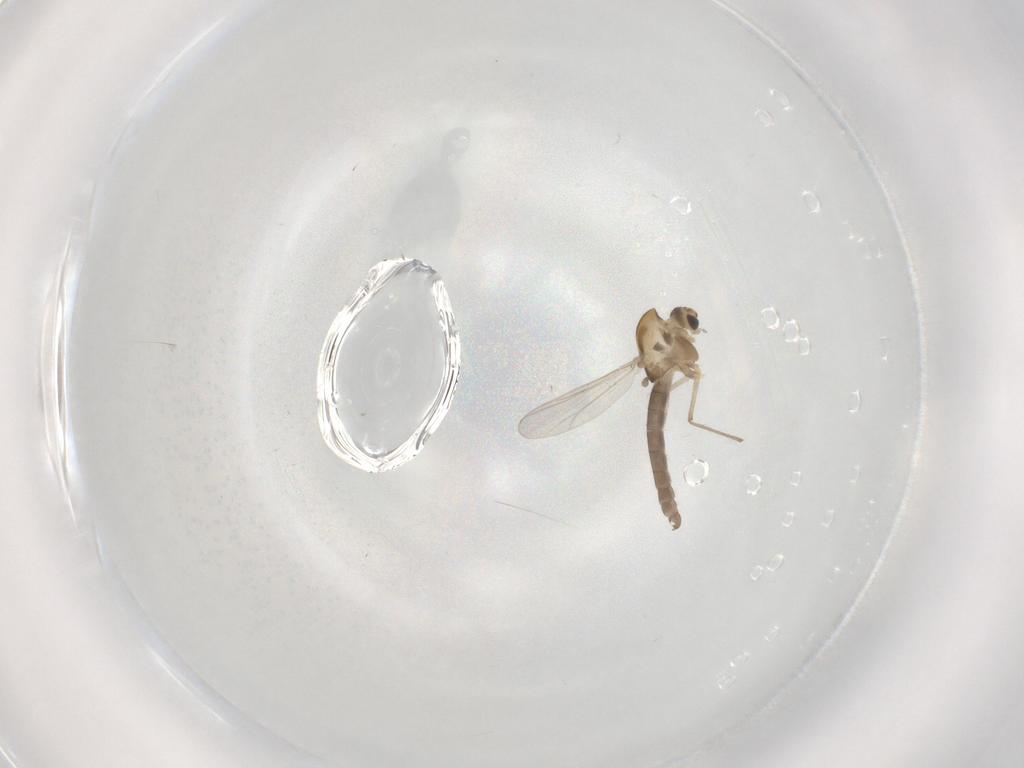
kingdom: Animalia
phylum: Arthropoda
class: Insecta
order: Diptera
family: Chironomidae
